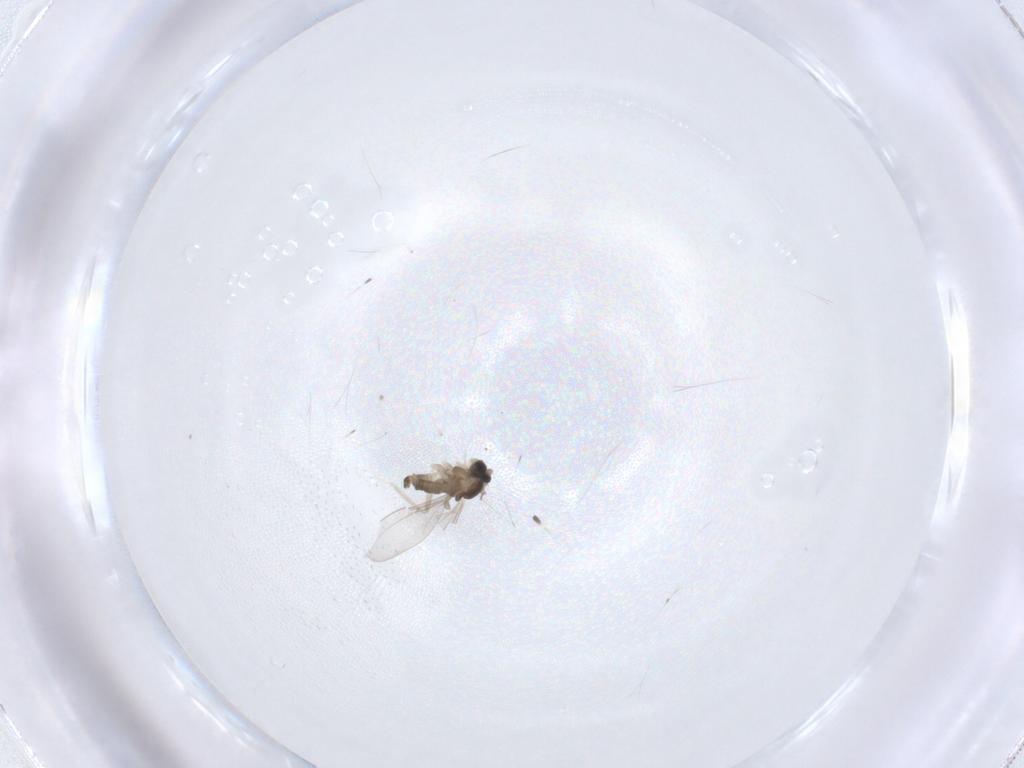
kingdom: Animalia
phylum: Arthropoda
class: Insecta
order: Diptera
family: Cecidomyiidae
